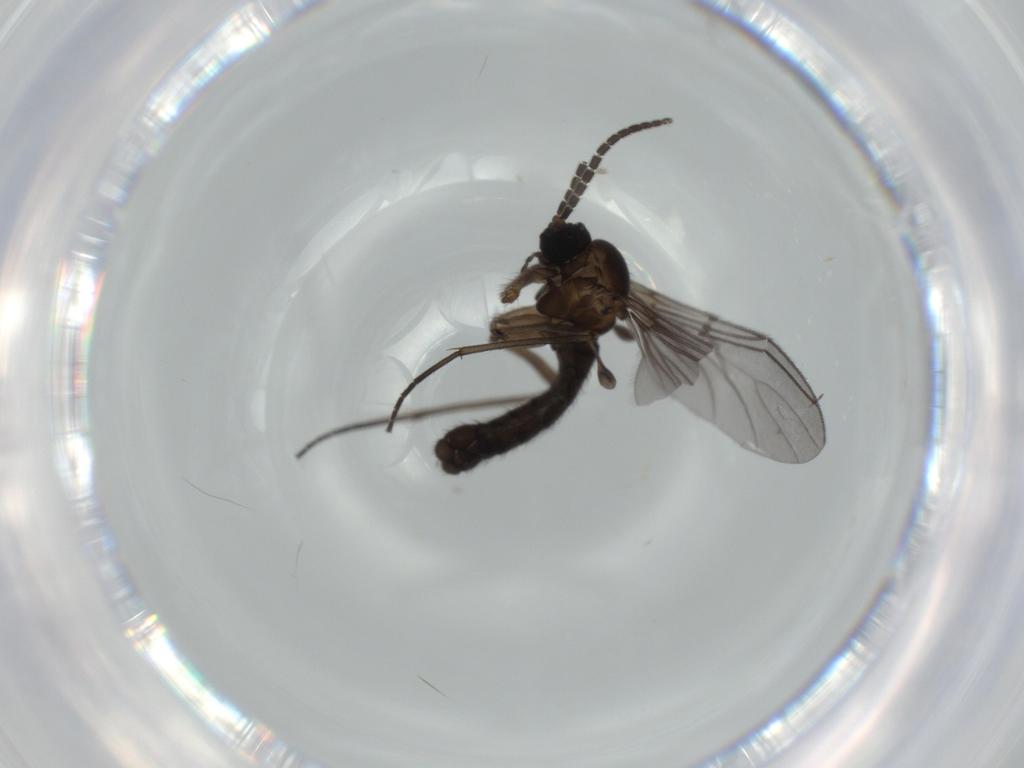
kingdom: Animalia
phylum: Arthropoda
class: Insecta
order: Diptera
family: Sciaridae
